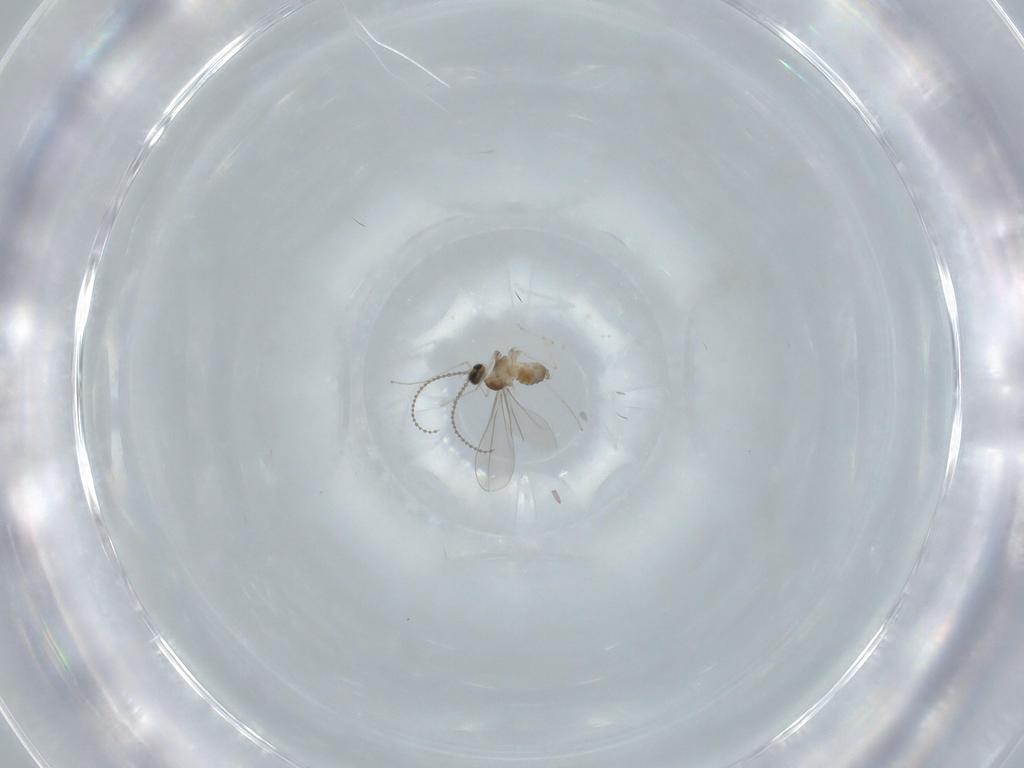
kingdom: Animalia
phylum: Arthropoda
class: Insecta
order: Diptera
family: Cecidomyiidae
